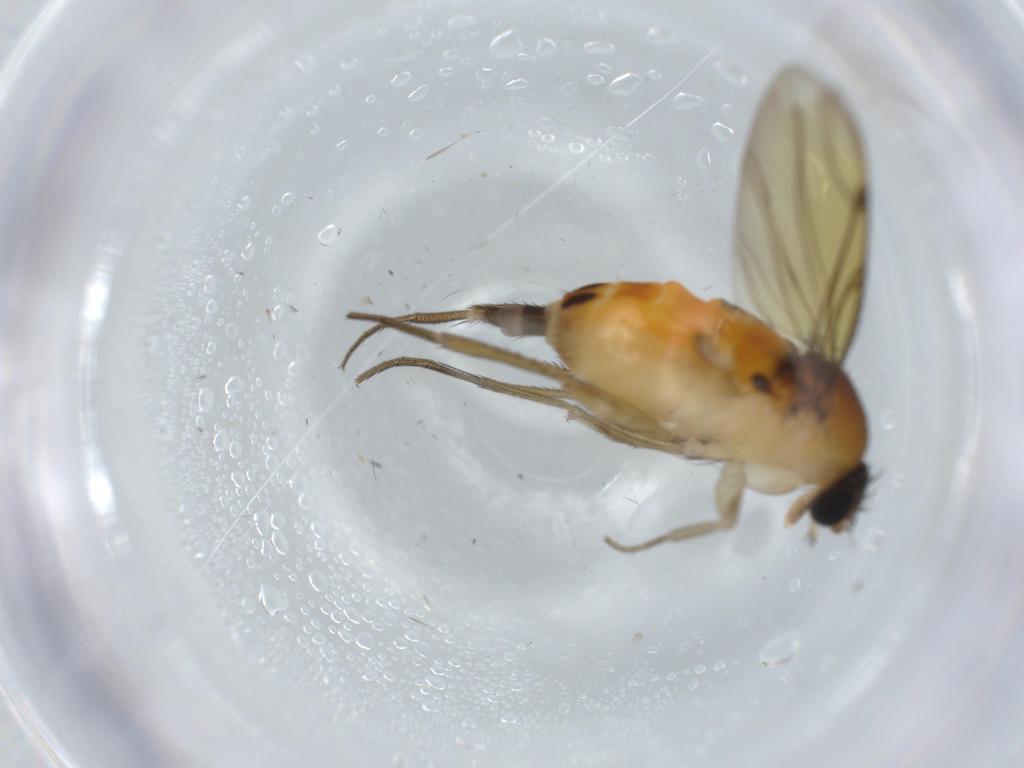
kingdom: Animalia
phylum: Arthropoda
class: Insecta
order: Diptera
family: Phoridae
